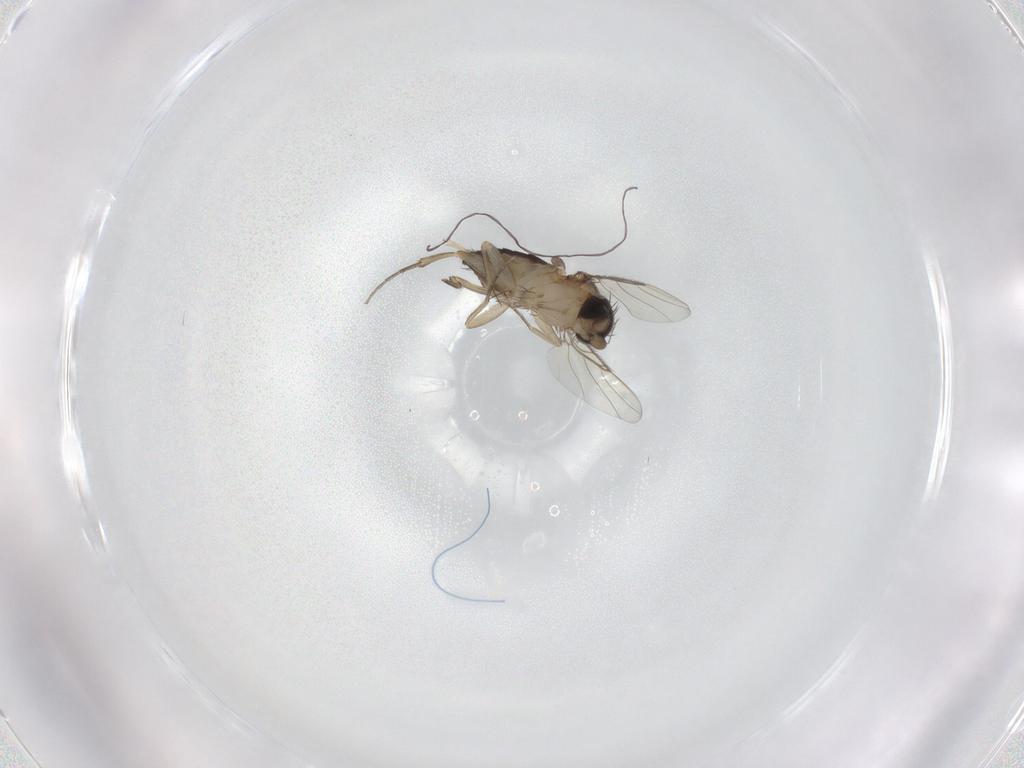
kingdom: Animalia
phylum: Arthropoda
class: Insecta
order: Diptera
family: Phoridae
